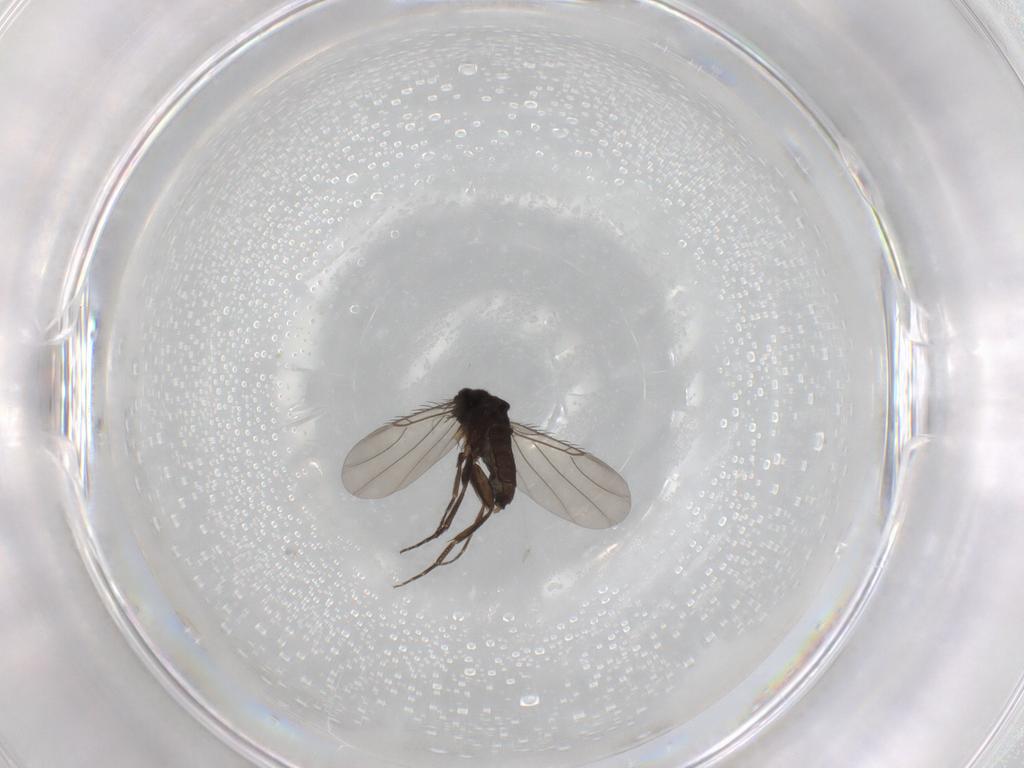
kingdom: Animalia
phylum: Arthropoda
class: Insecta
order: Diptera
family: Phoridae
